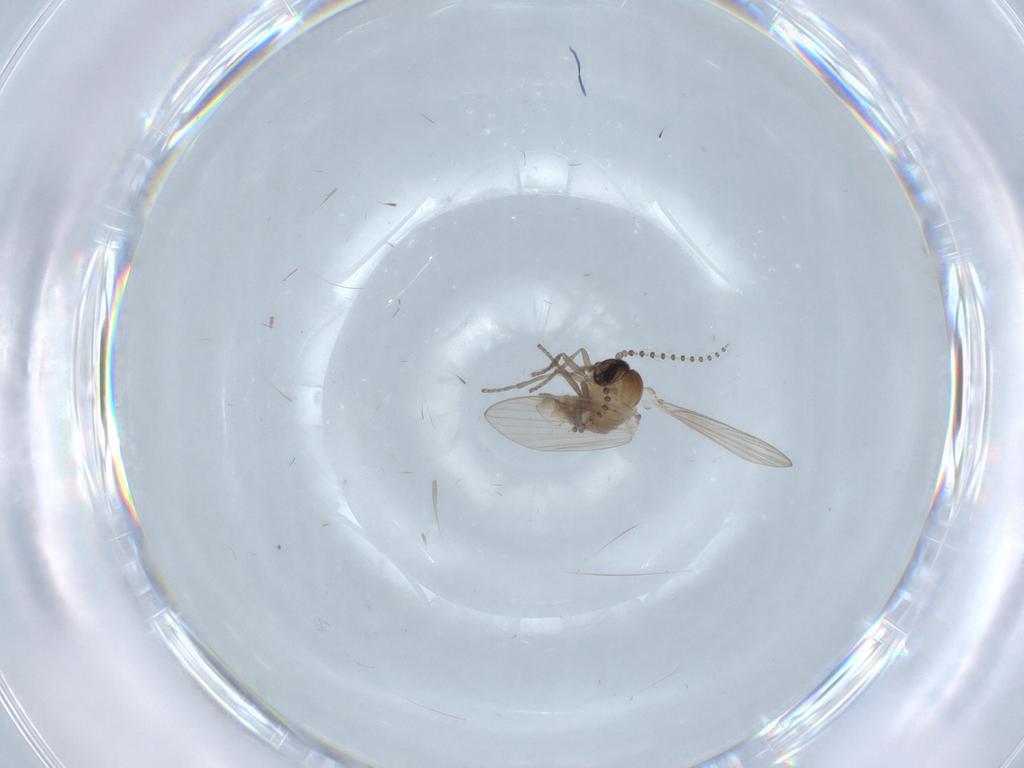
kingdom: Animalia
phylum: Arthropoda
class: Insecta
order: Diptera
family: Psychodidae
